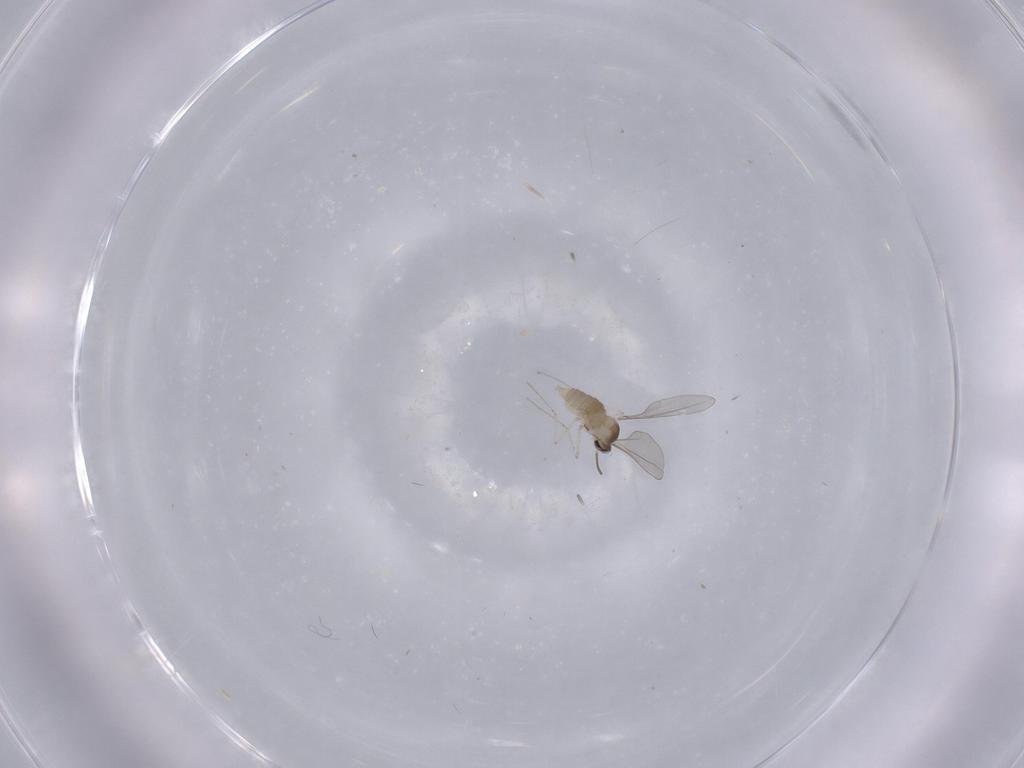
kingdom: Animalia
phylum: Arthropoda
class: Insecta
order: Diptera
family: Cecidomyiidae
